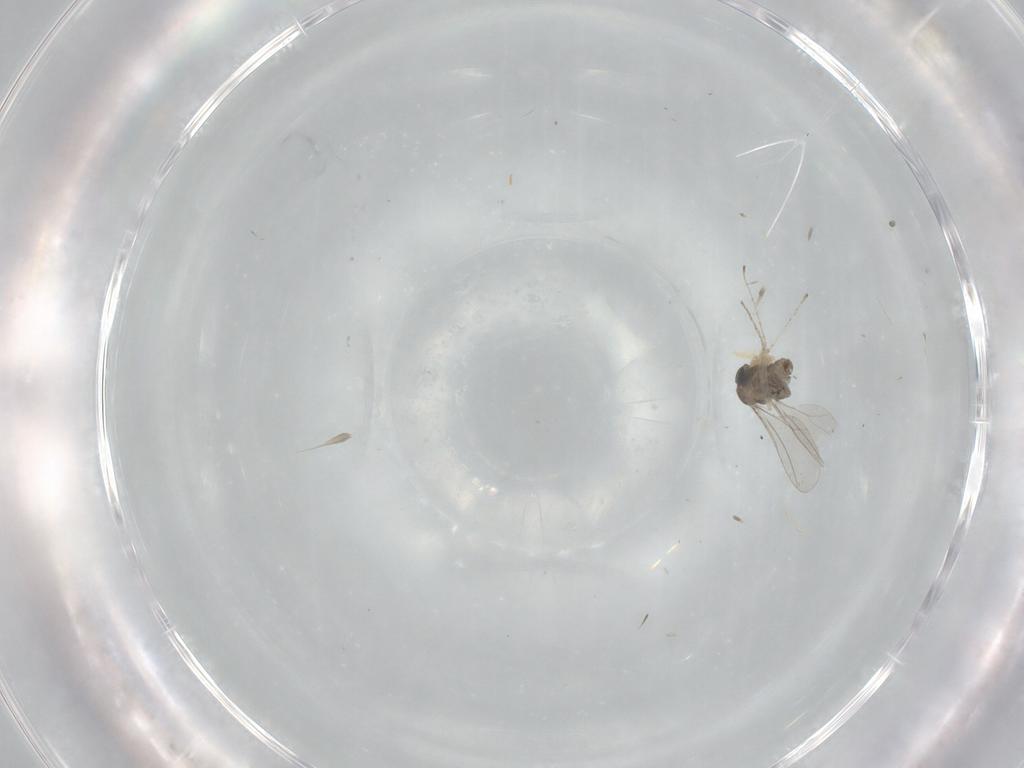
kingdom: Animalia
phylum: Arthropoda
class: Insecta
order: Diptera
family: Cecidomyiidae
